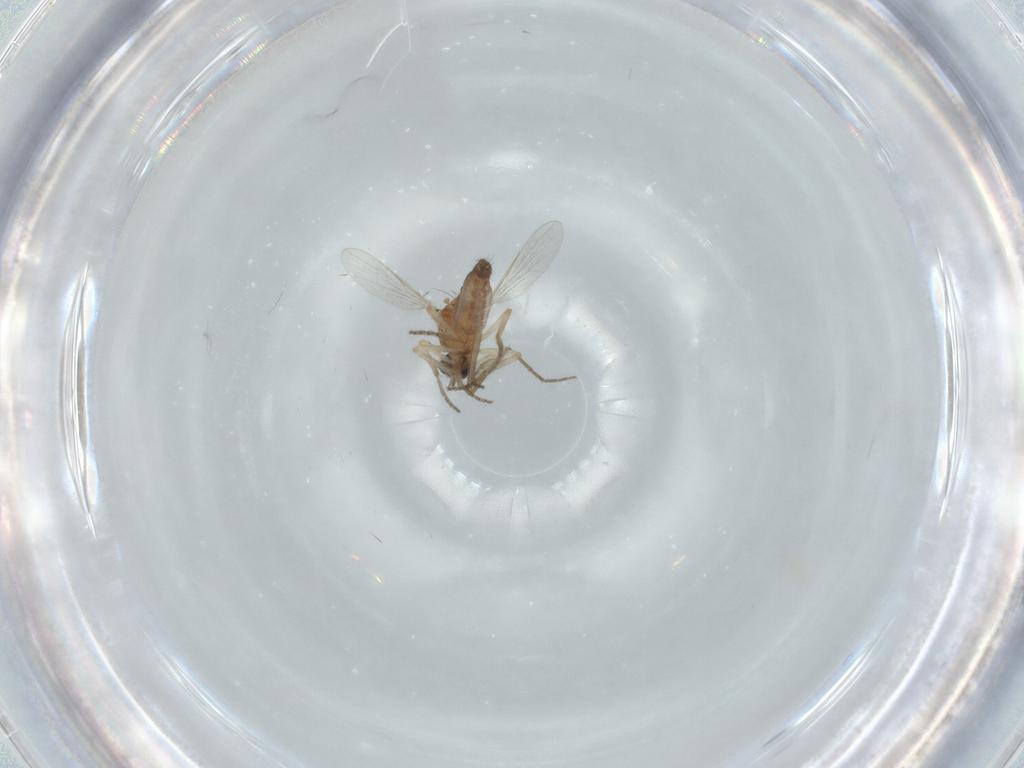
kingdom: Animalia
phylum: Arthropoda
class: Insecta
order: Diptera
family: Ceratopogonidae
